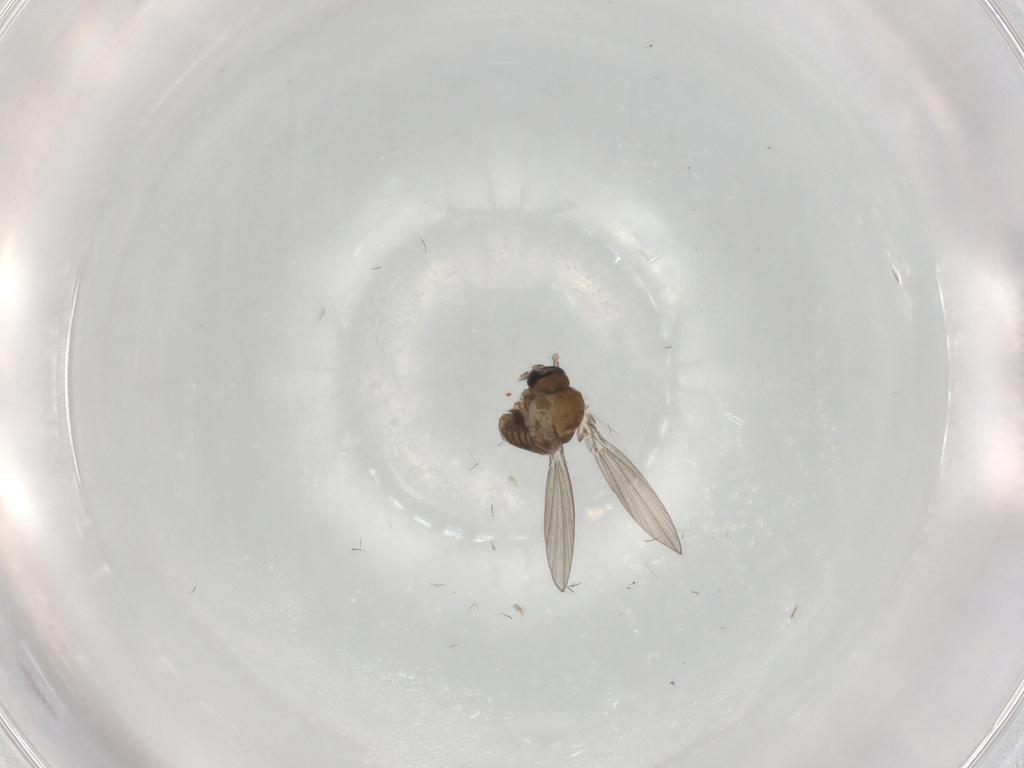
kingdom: Animalia
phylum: Arthropoda
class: Insecta
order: Diptera
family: Psychodidae
